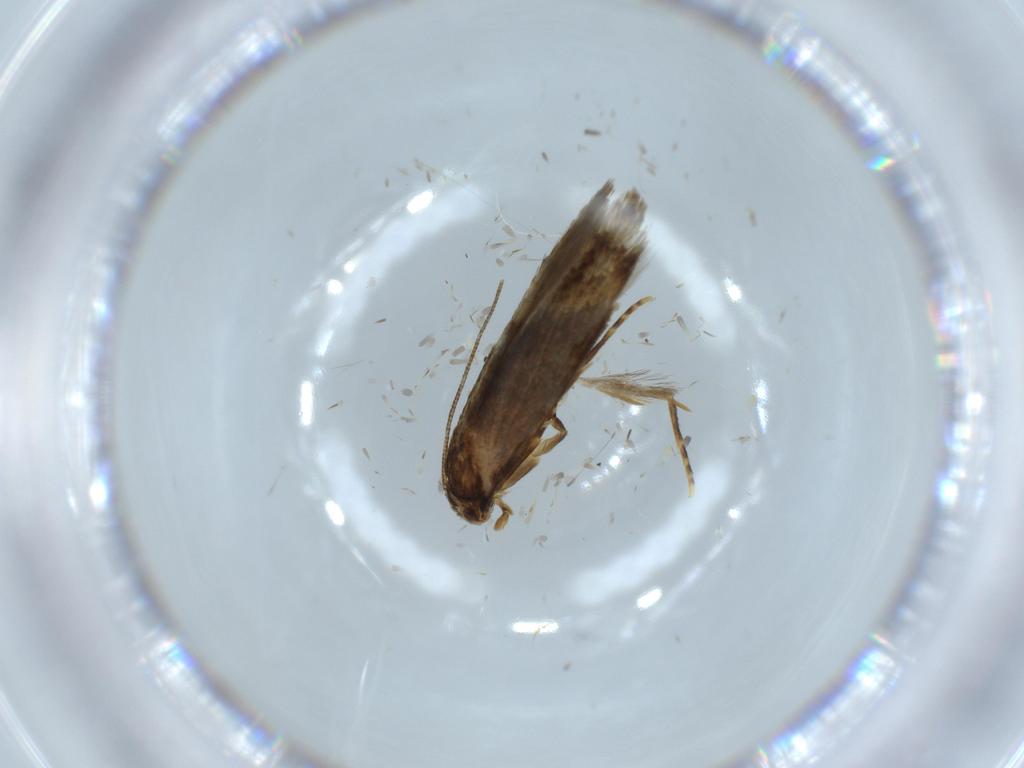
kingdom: Animalia
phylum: Arthropoda
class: Insecta
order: Lepidoptera
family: Tineidae
